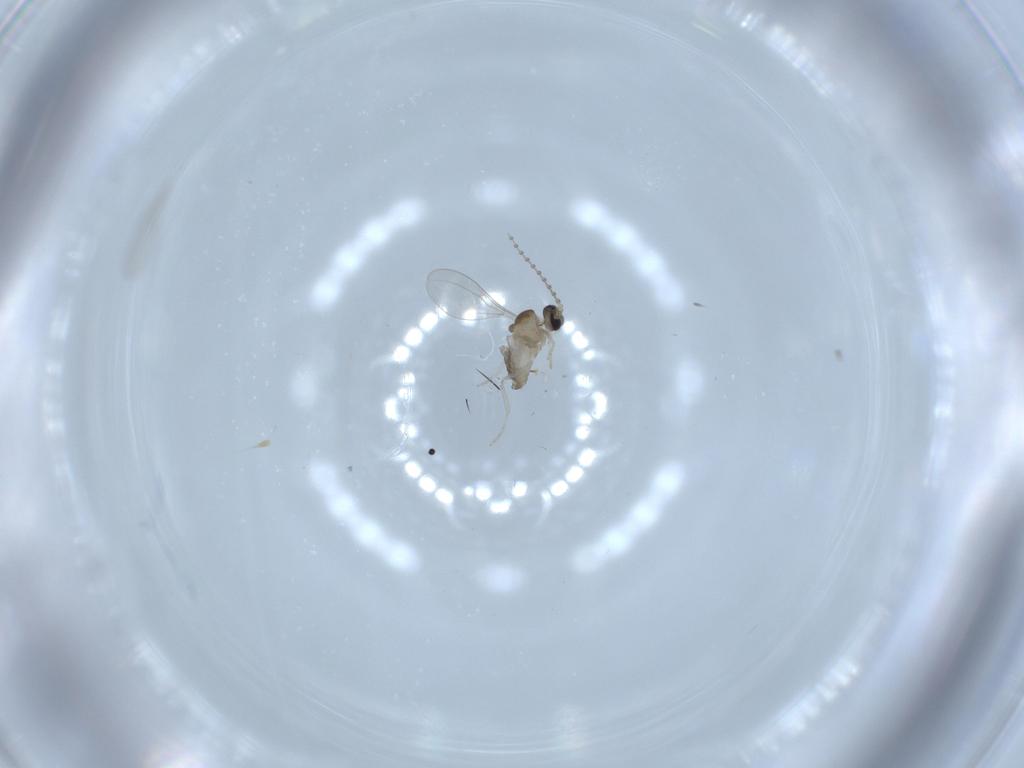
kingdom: Animalia
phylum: Arthropoda
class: Insecta
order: Diptera
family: Cecidomyiidae
